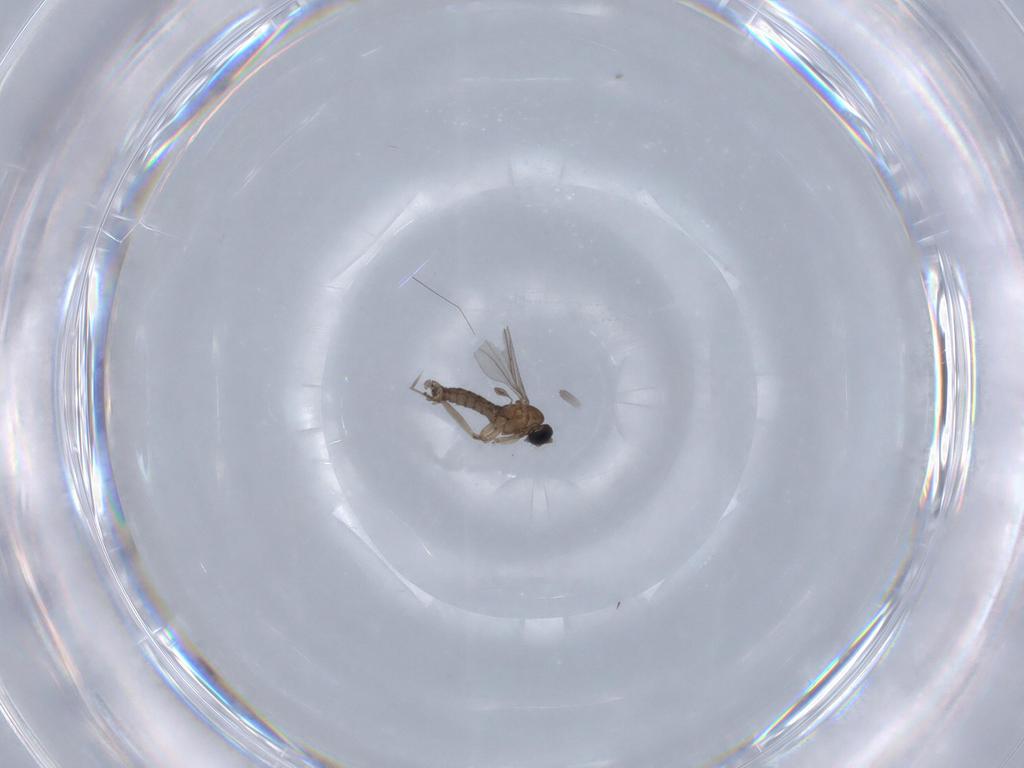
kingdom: Animalia
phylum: Arthropoda
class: Insecta
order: Diptera
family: Sciaridae
